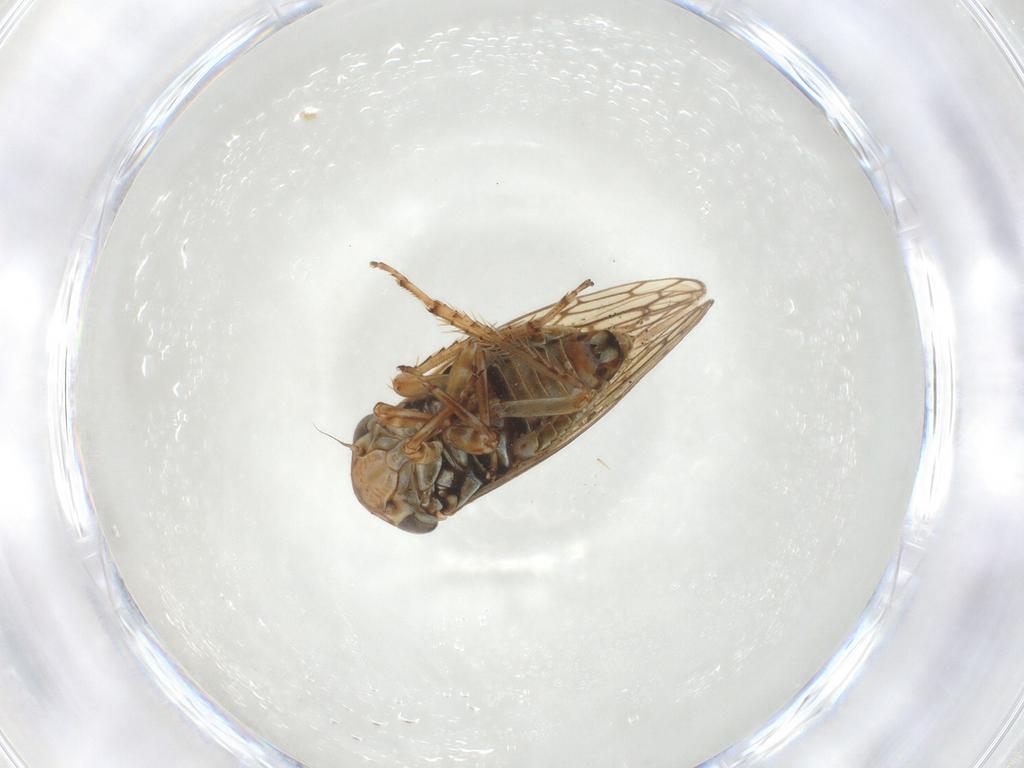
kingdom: Animalia
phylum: Arthropoda
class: Insecta
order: Hemiptera
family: Cicadellidae
